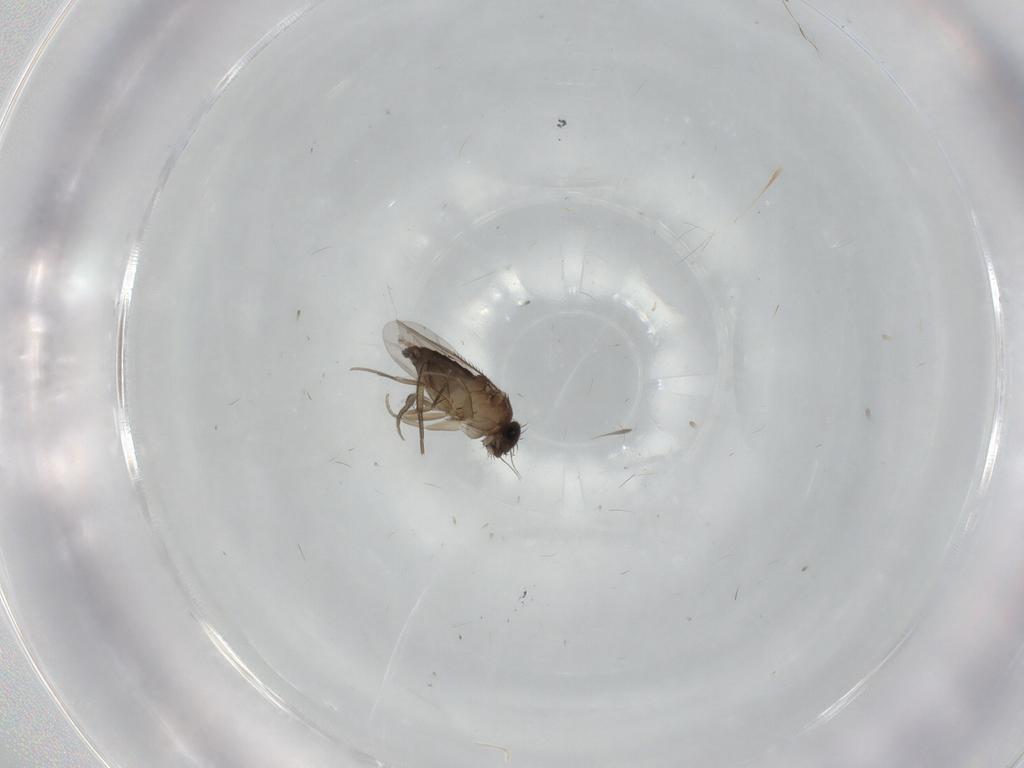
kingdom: Animalia
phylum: Arthropoda
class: Insecta
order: Diptera
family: Phoridae
